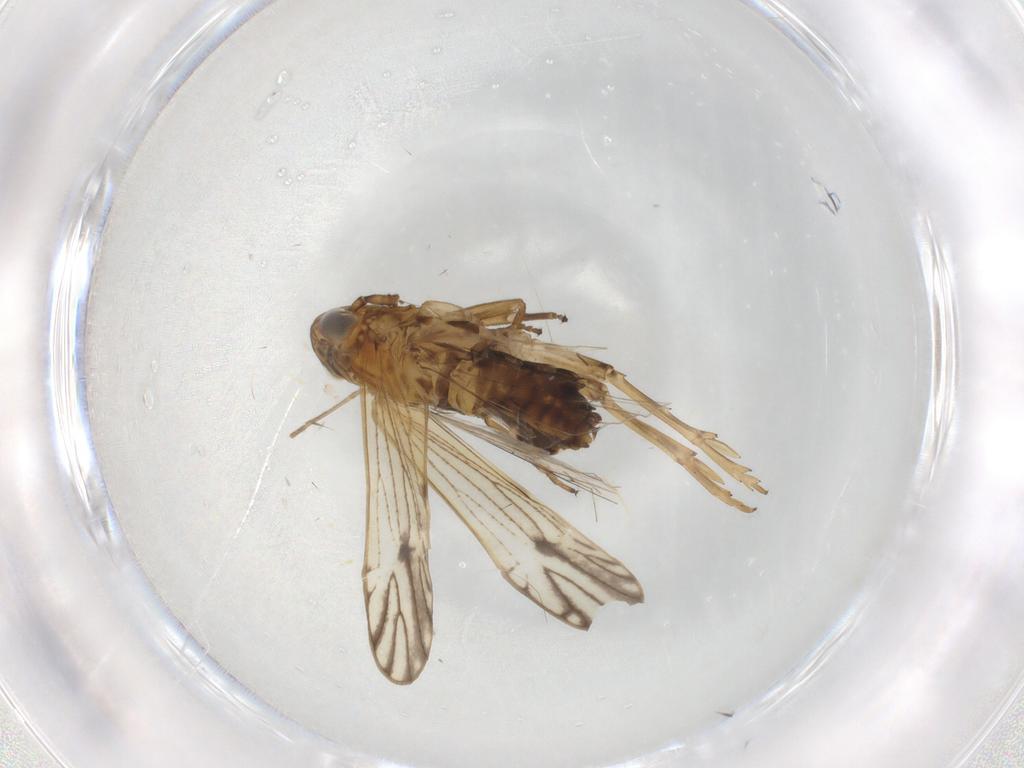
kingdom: Animalia
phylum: Arthropoda
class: Insecta
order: Hemiptera
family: Delphacidae
